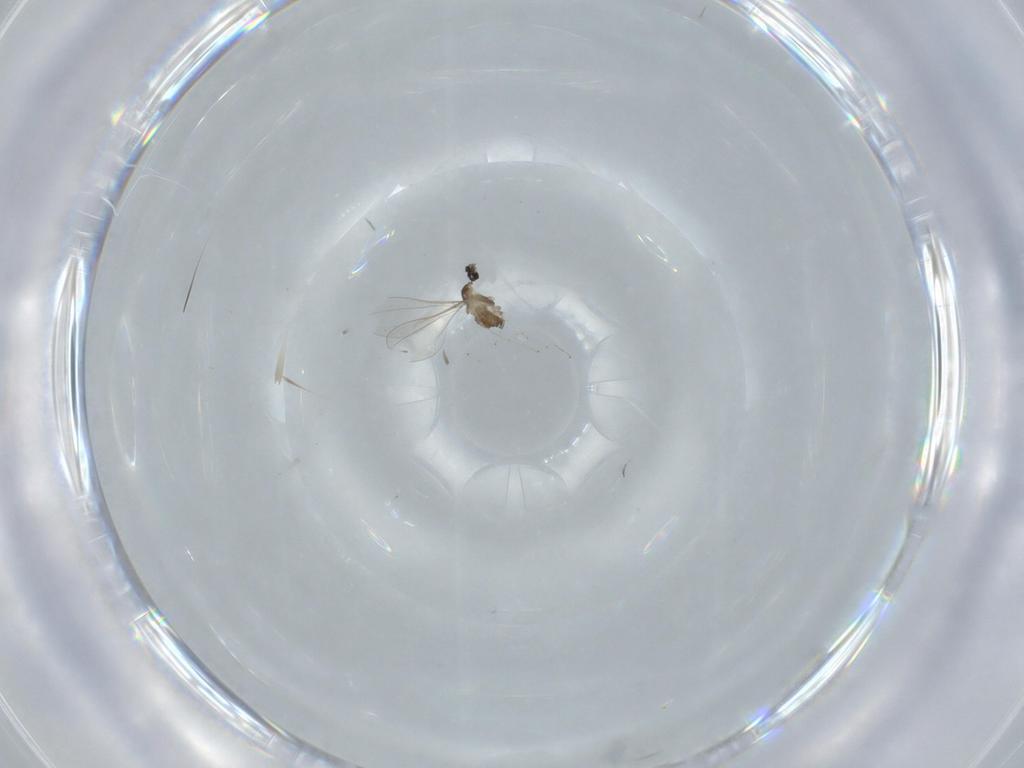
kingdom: Animalia
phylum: Arthropoda
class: Insecta
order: Diptera
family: Cecidomyiidae
